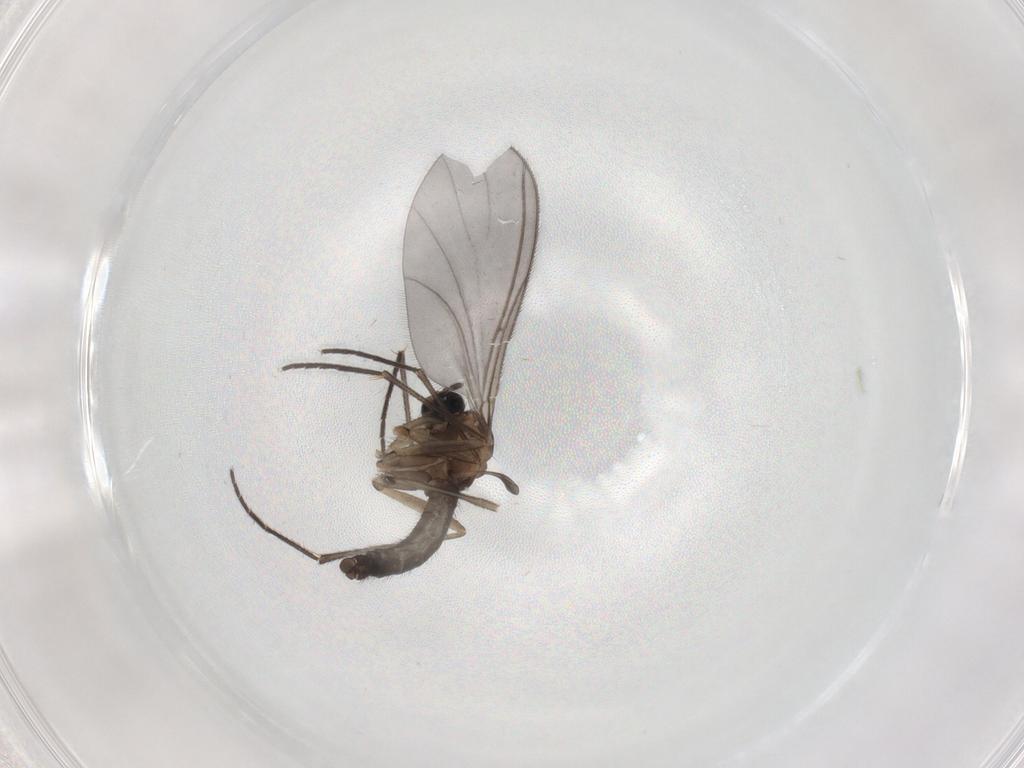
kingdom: Animalia
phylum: Arthropoda
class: Insecta
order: Diptera
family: Sciaridae
